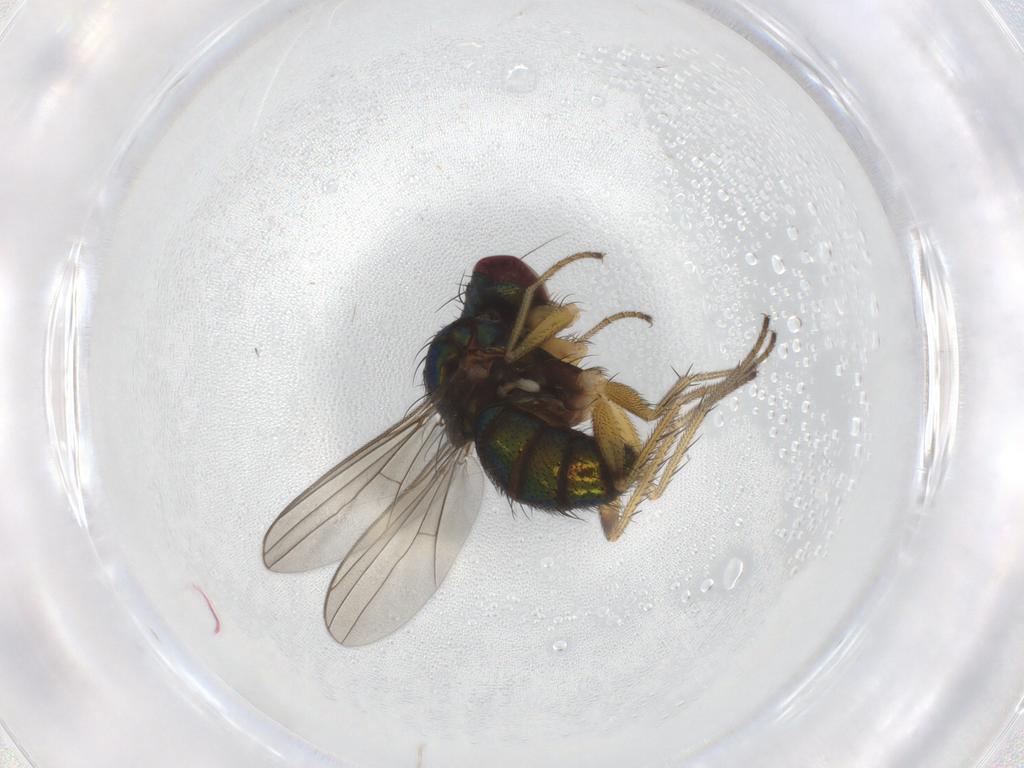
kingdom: Animalia
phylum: Arthropoda
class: Insecta
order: Diptera
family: Dolichopodidae
